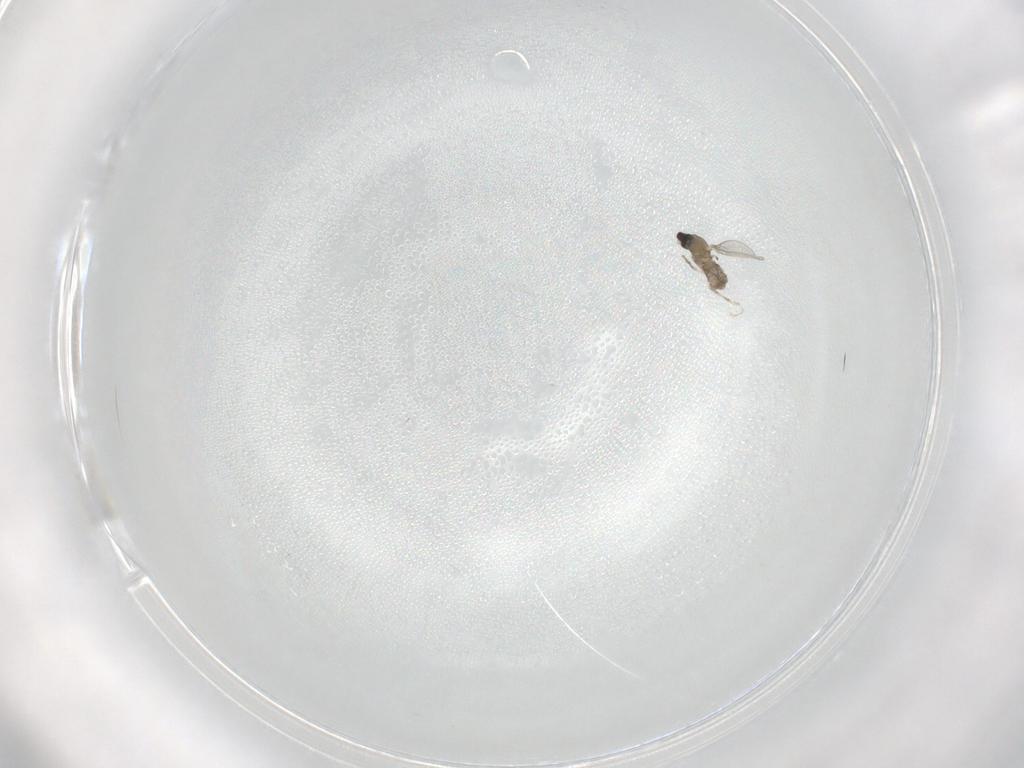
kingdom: Animalia
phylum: Arthropoda
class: Insecta
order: Diptera
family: Cecidomyiidae
